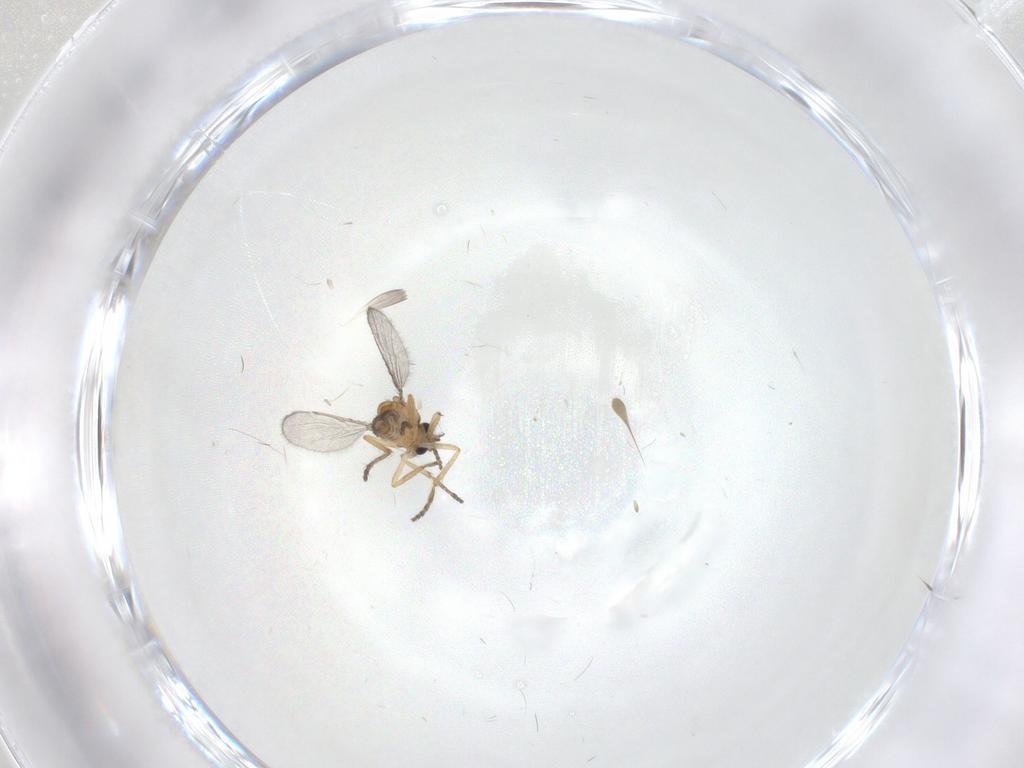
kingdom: Animalia
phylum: Arthropoda
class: Insecta
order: Diptera
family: Ceratopogonidae
